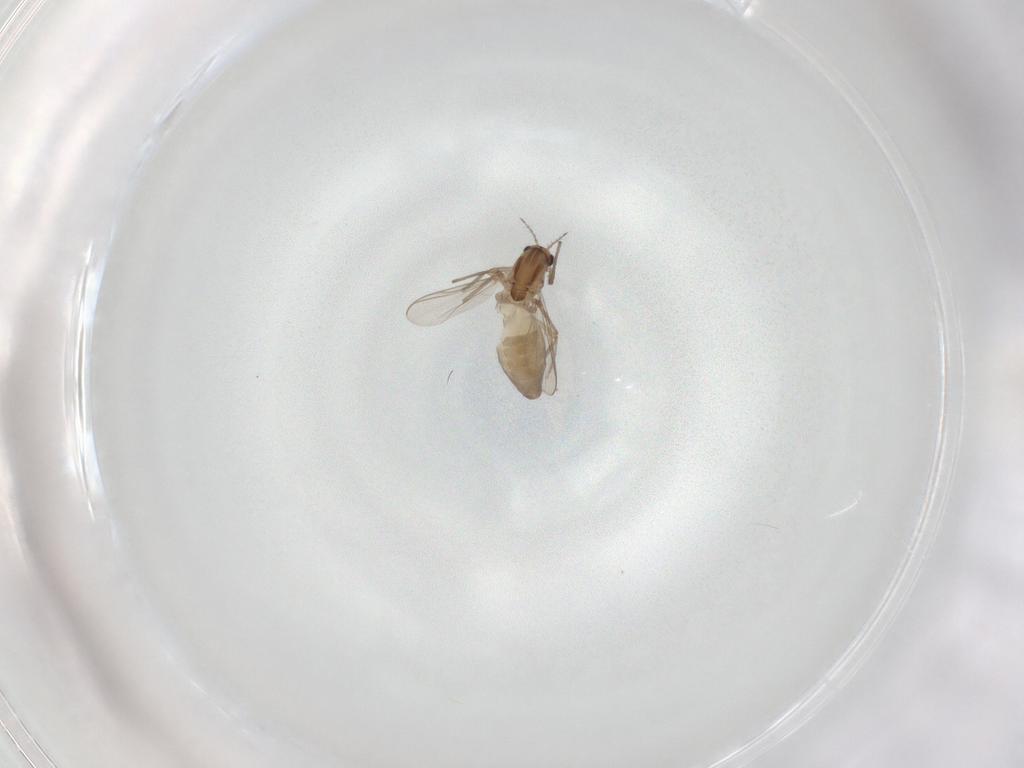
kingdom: Animalia
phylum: Arthropoda
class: Insecta
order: Diptera
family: Chironomidae
